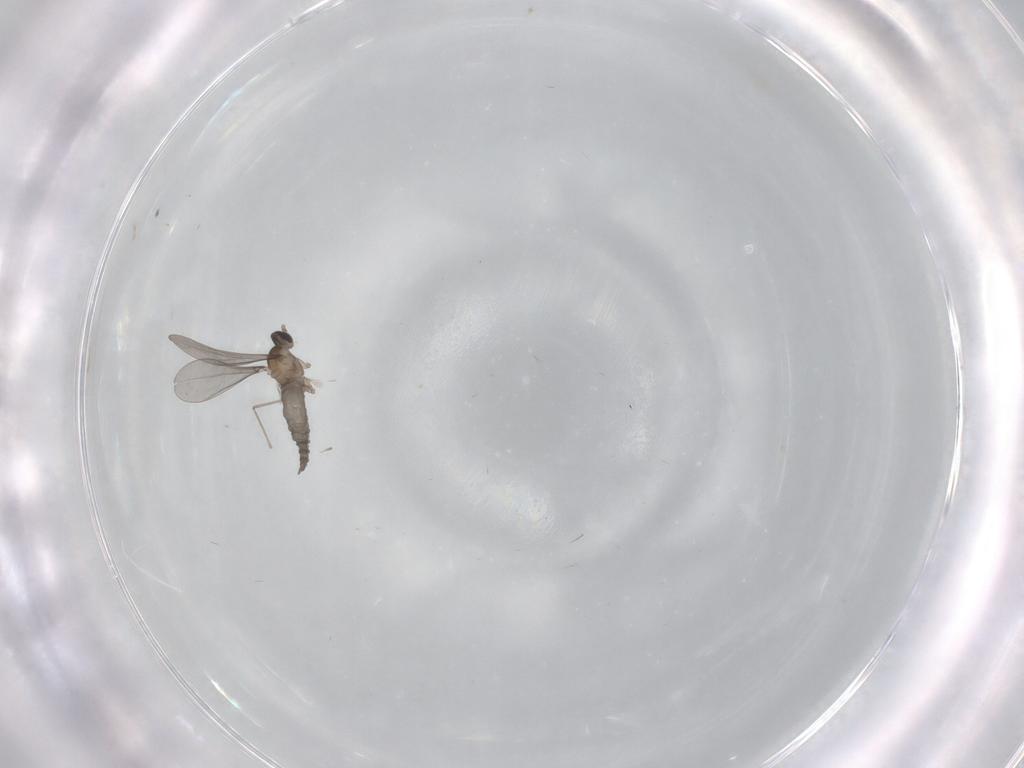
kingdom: Animalia
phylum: Arthropoda
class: Insecta
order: Diptera
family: Cecidomyiidae
